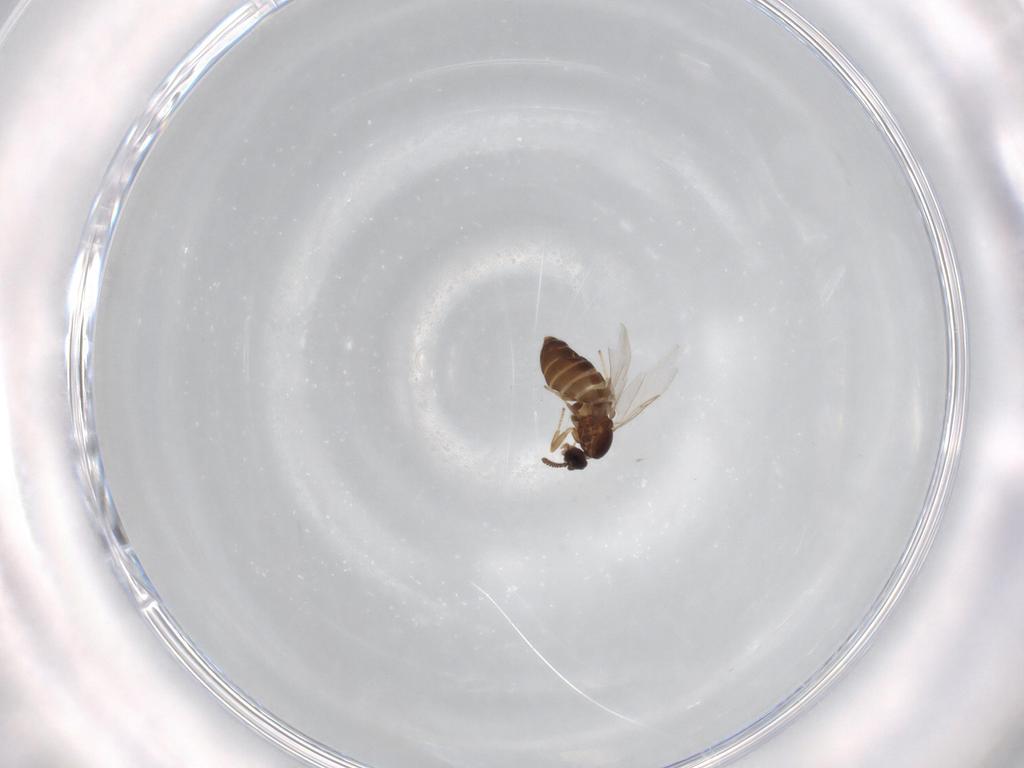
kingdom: Animalia
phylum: Arthropoda
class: Insecta
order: Diptera
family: Scatopsidae
